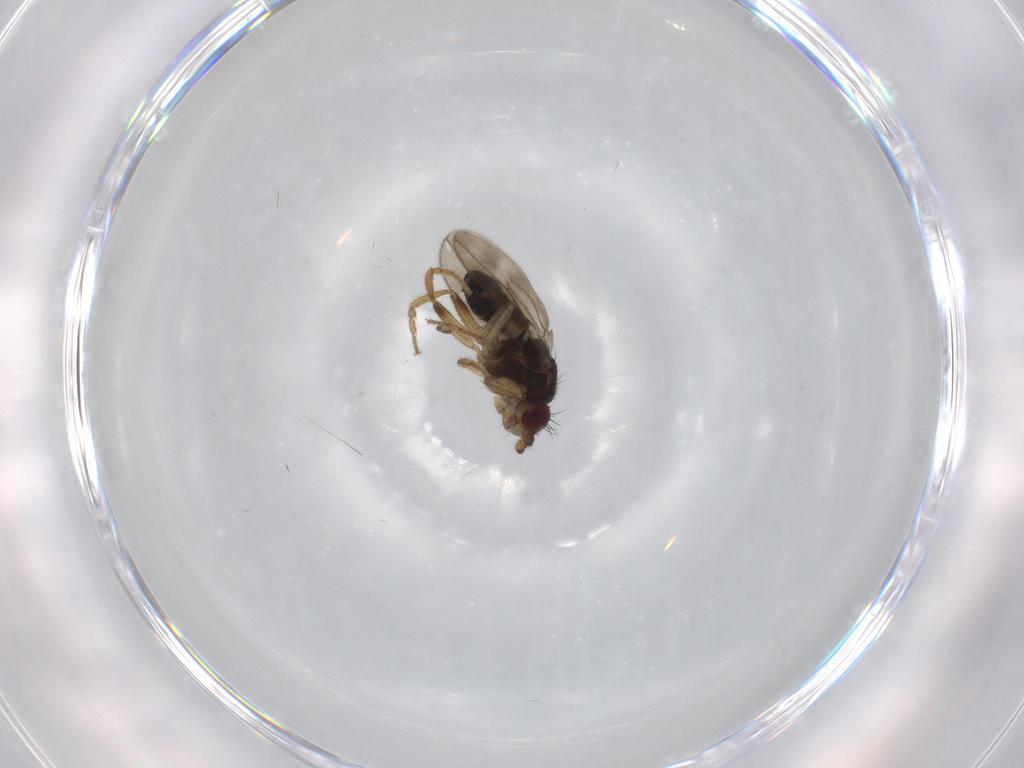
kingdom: Animalia
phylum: Arthropoda
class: Insecta
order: Diptera
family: Sphaeroceridae
